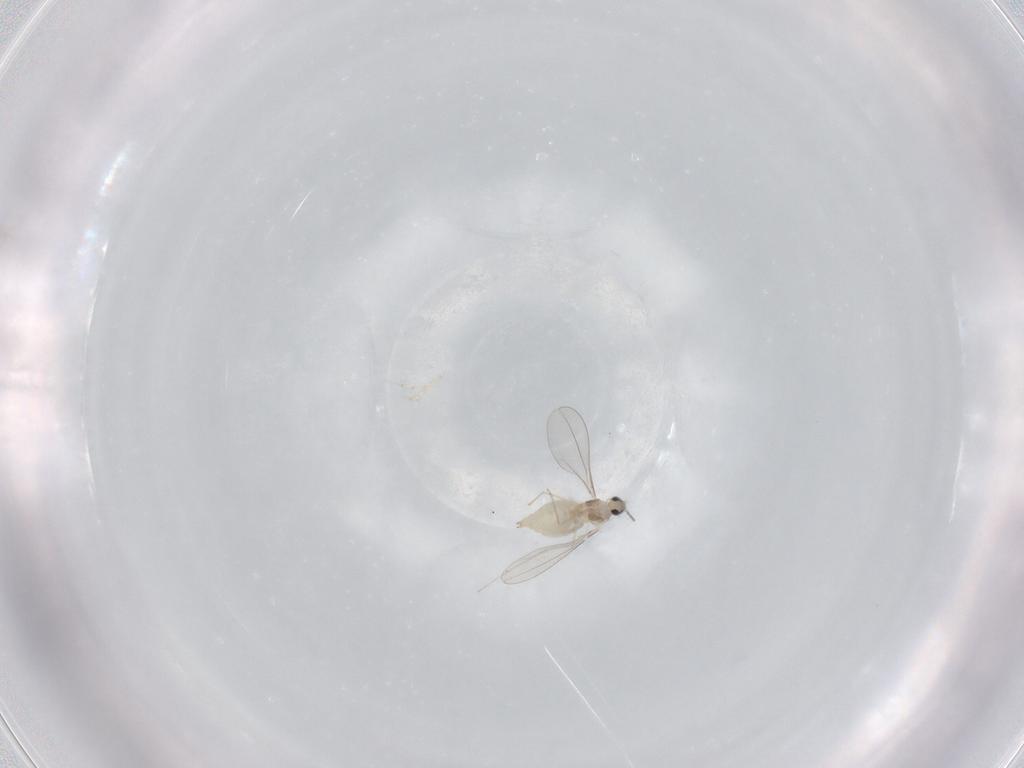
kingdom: Animalia
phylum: Arthropoda
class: Insecta
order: Diptera
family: Cecidomyiidae
